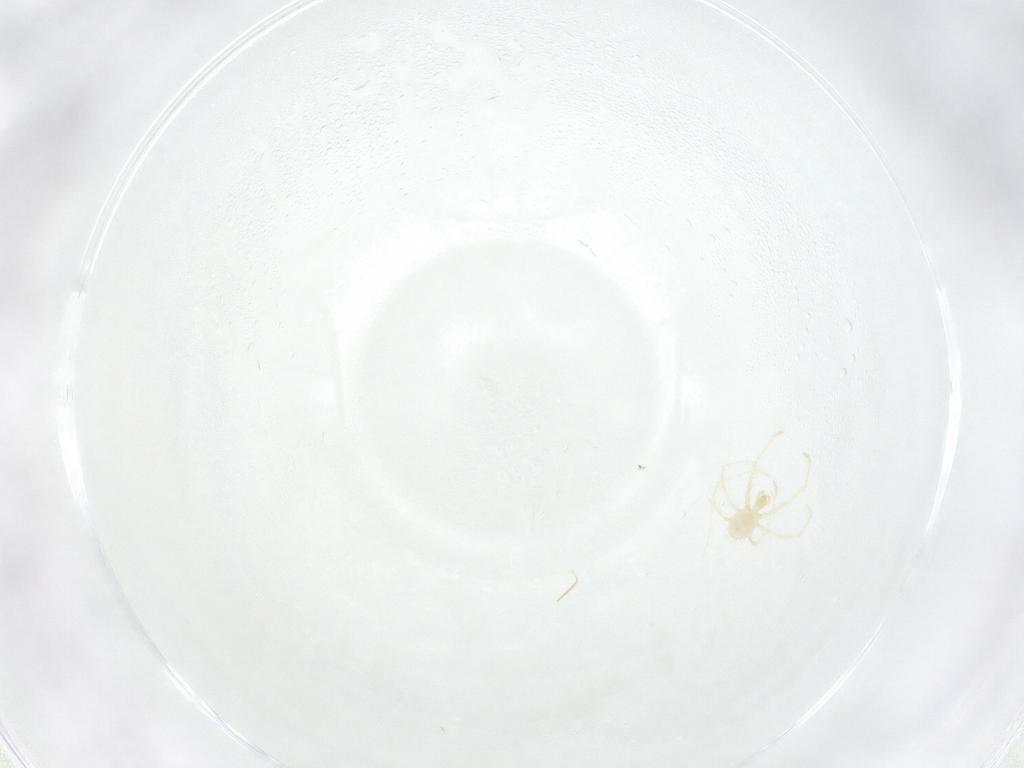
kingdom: Animalia
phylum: Arthropoda
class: Arachnida
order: Trombidiformes
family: Erythraeidae
